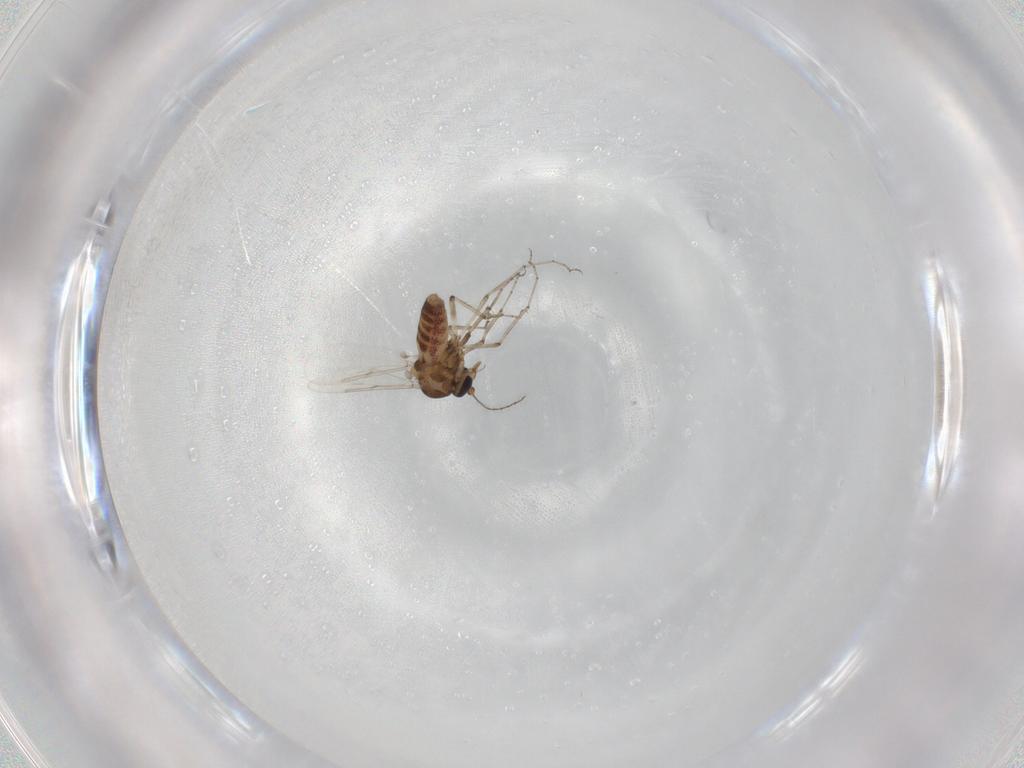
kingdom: Animalia
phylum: Arthropoda
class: Insecta
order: Diptera
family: Ceratopogonidae
